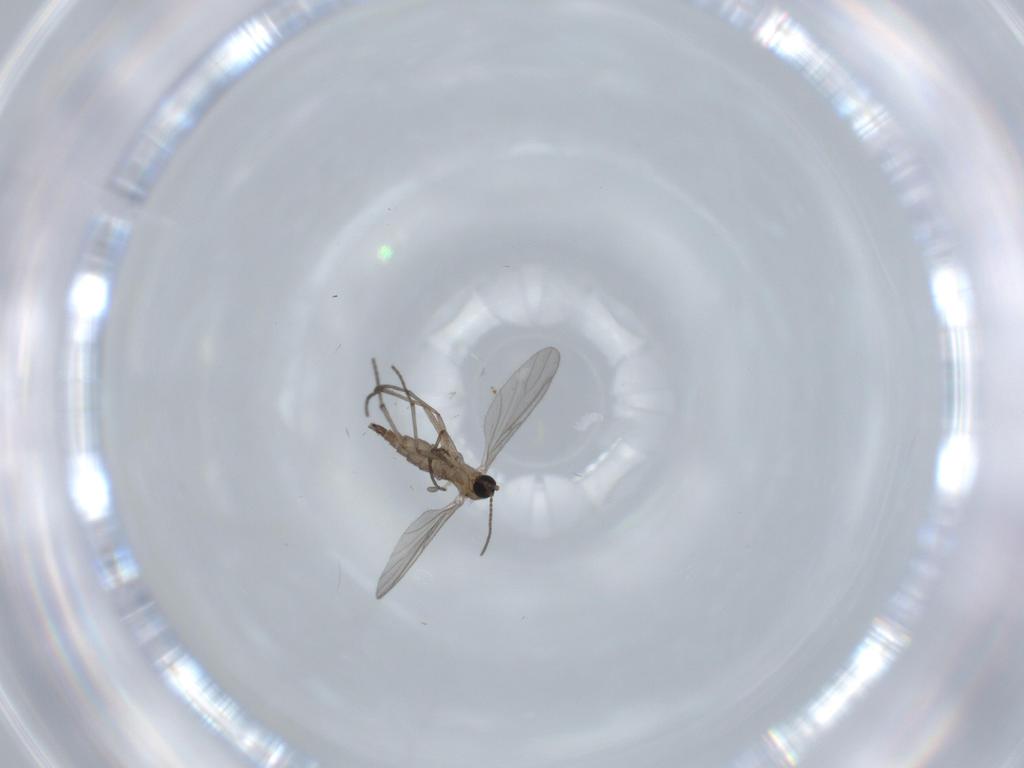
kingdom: Animalia
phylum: Arthropoda
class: Insecta
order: Diptera
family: Sciaridae
